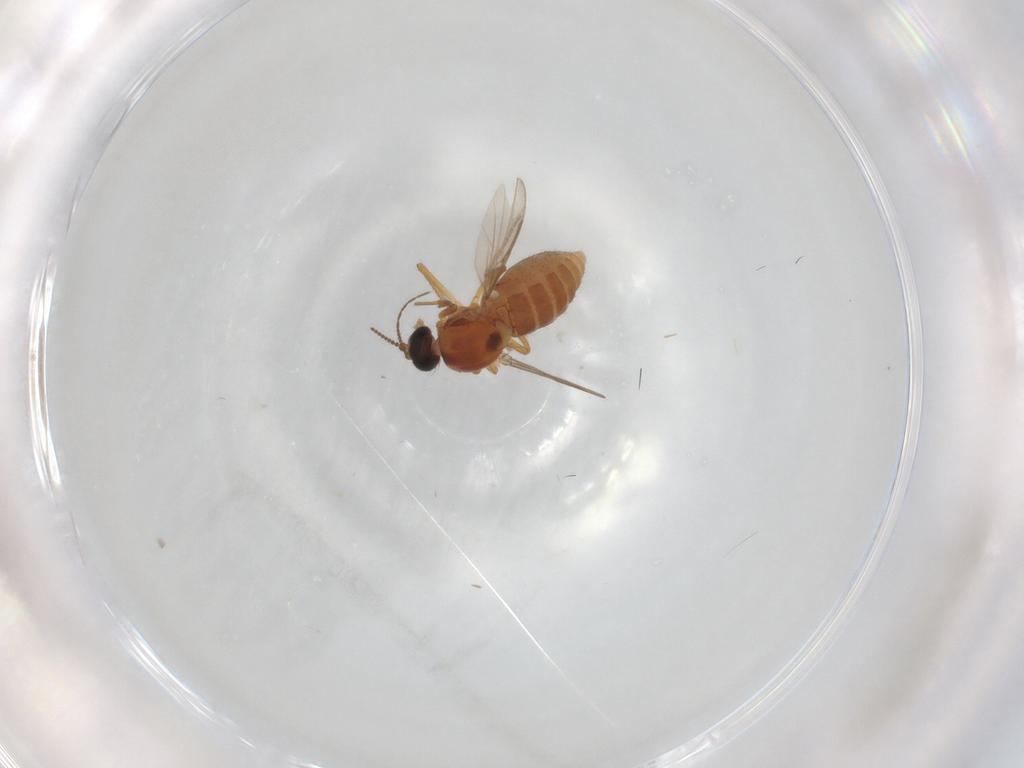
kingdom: Animalia
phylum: Arthropoda
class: Insecta
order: Diptera
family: Ceratopogonidae
